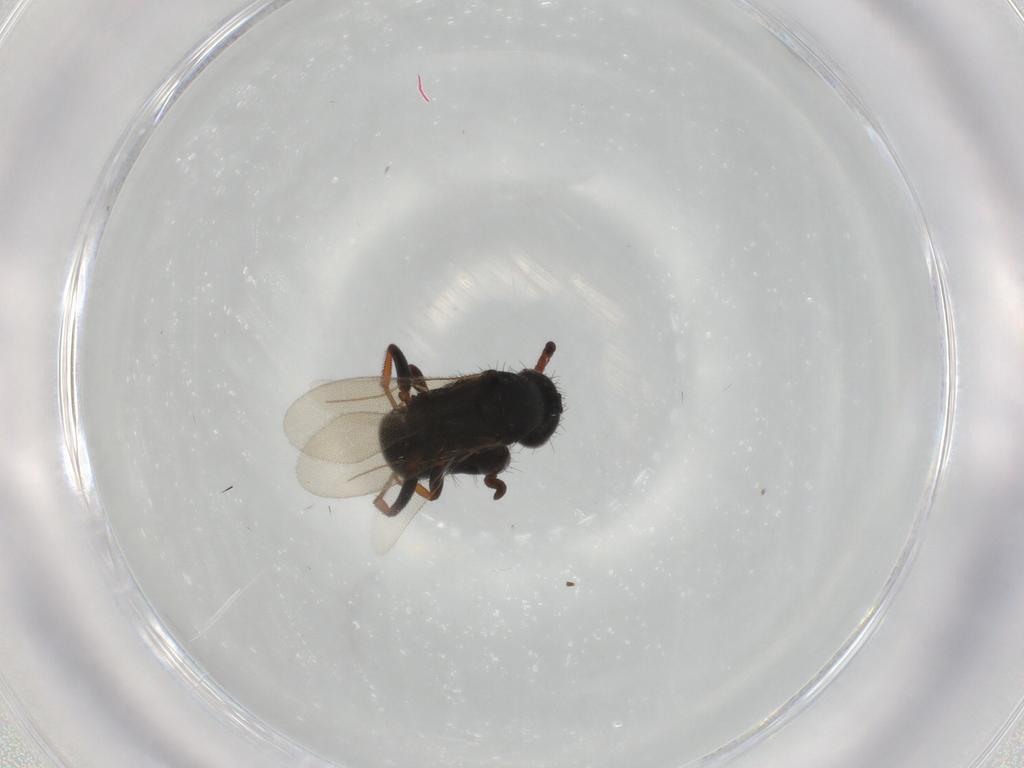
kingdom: Animalia
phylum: Arthropoda
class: Insecta
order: Hymenoptera
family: Bethylidae
